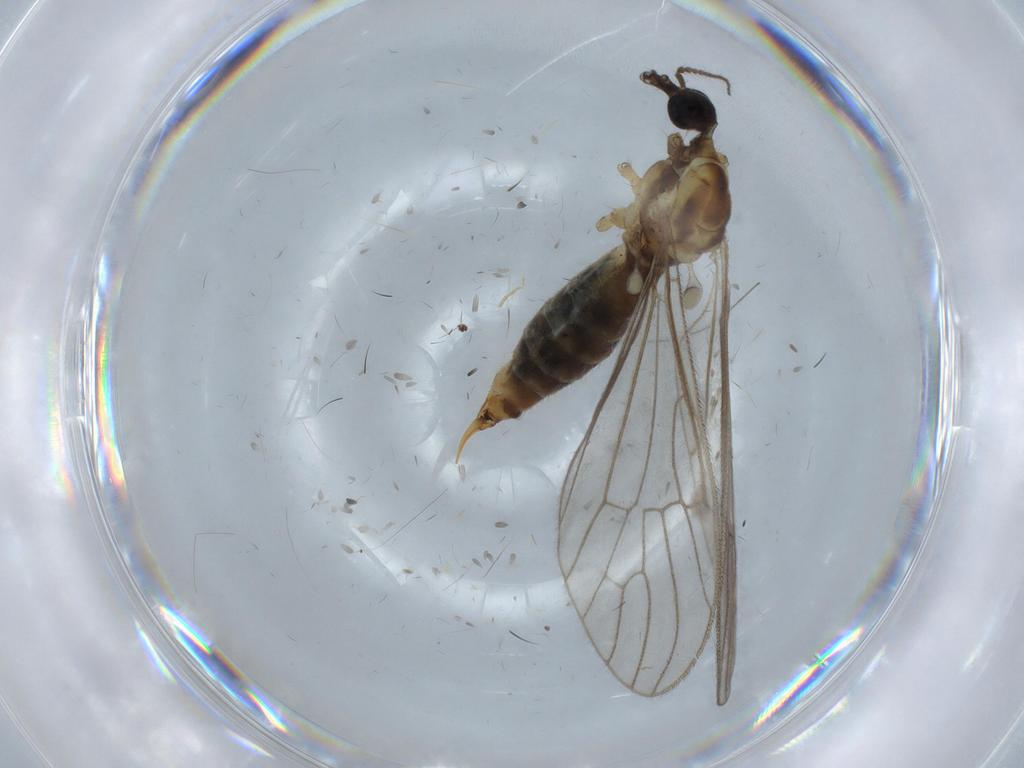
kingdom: Animalia
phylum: Arthropoda
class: Insecta
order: Diptera
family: Limoniidae
